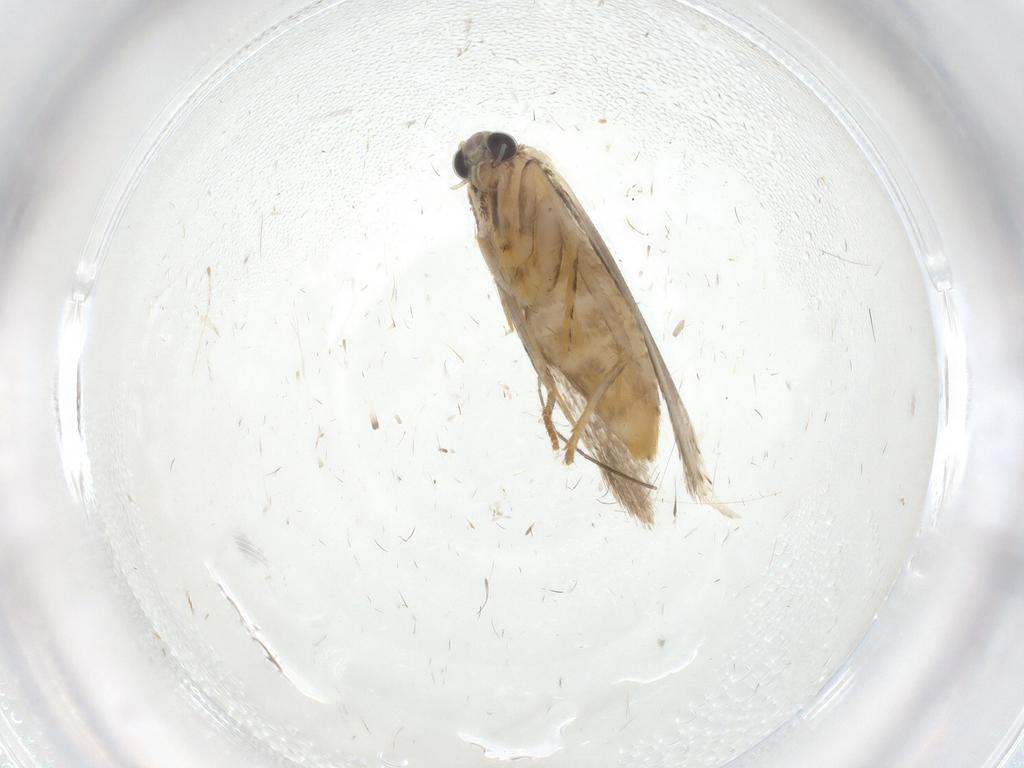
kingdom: Animalia
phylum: Arthropoda
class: Insecta
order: Lepidoptera
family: Tineidae
